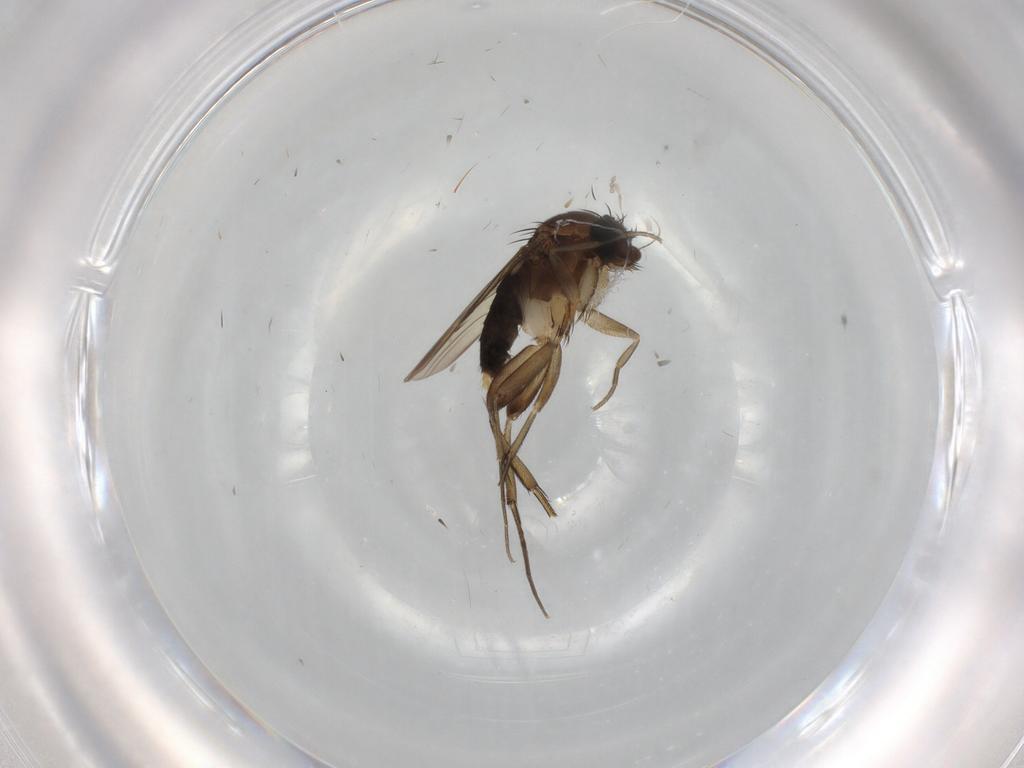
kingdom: Animalia
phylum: Arthropoda
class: Insecta
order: Diptera
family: Phoridae
